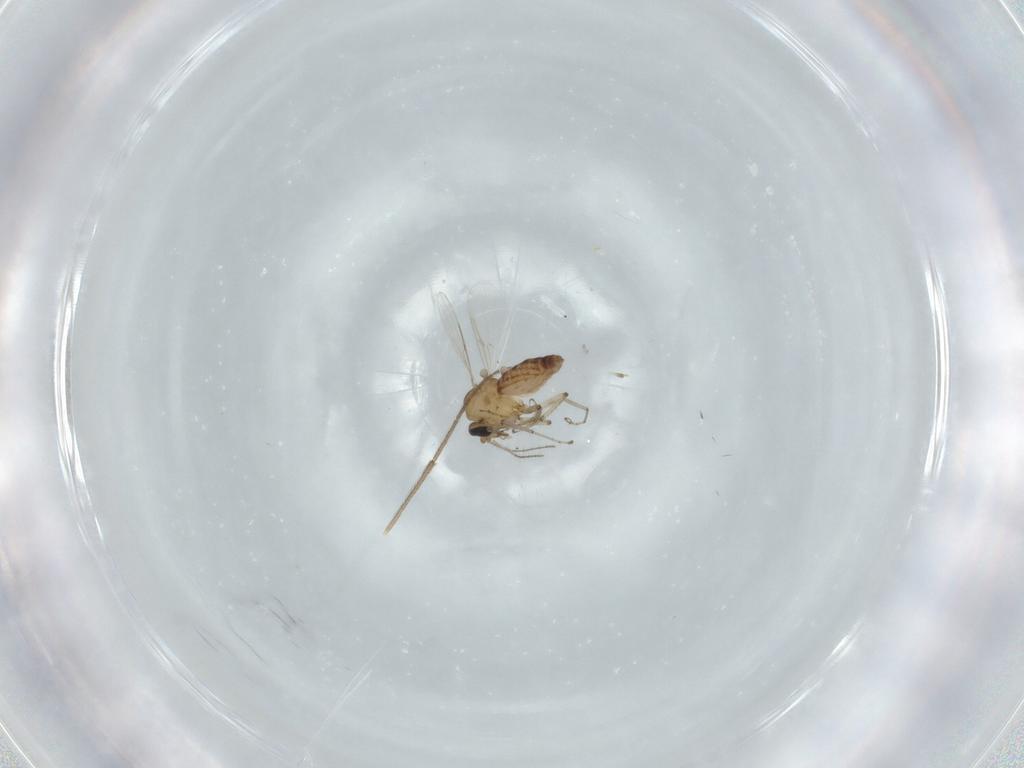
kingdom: Animalia
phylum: Arthropoda
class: Insecta
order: Diptera
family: Ceratopogonidae
